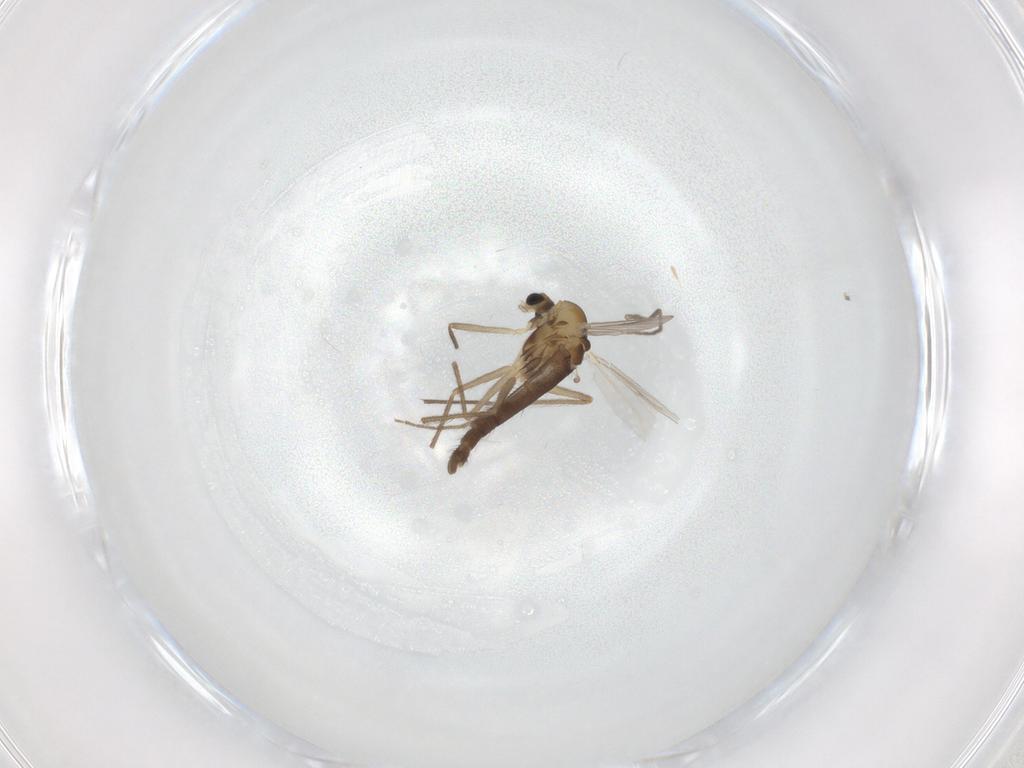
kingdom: Animalia
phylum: Arthropoda
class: Insecta
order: Diptera
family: Chironomidae
